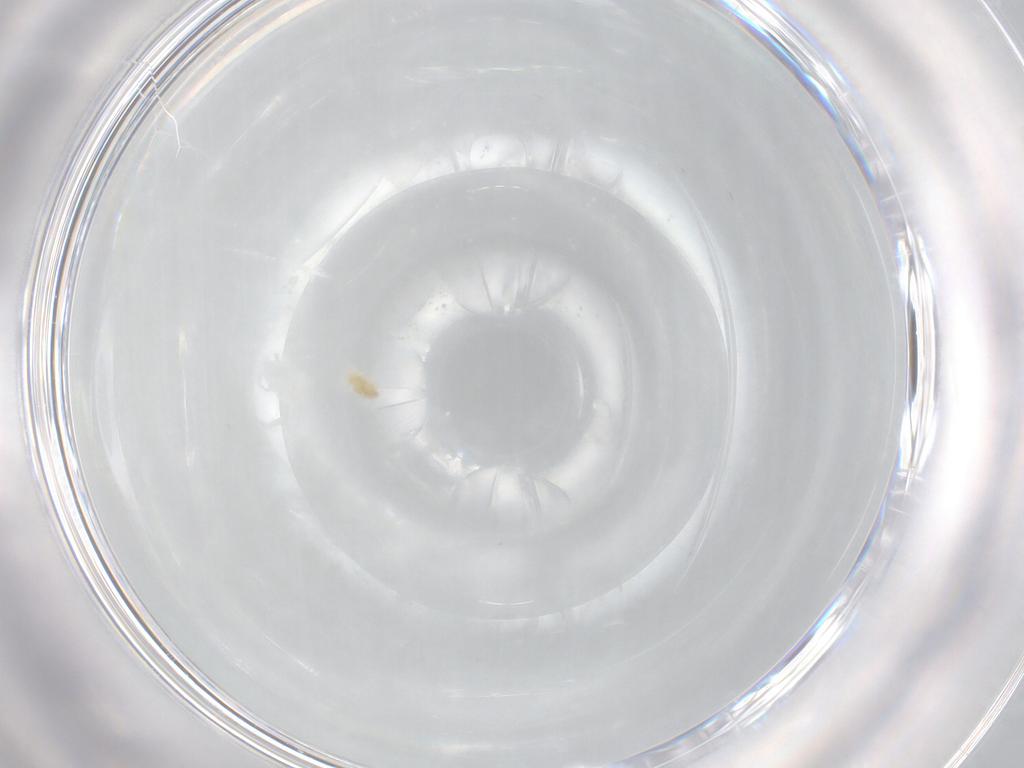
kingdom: Animalia
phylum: Arthropoda
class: Arachnida
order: Trombidiformes
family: Eupodidae
